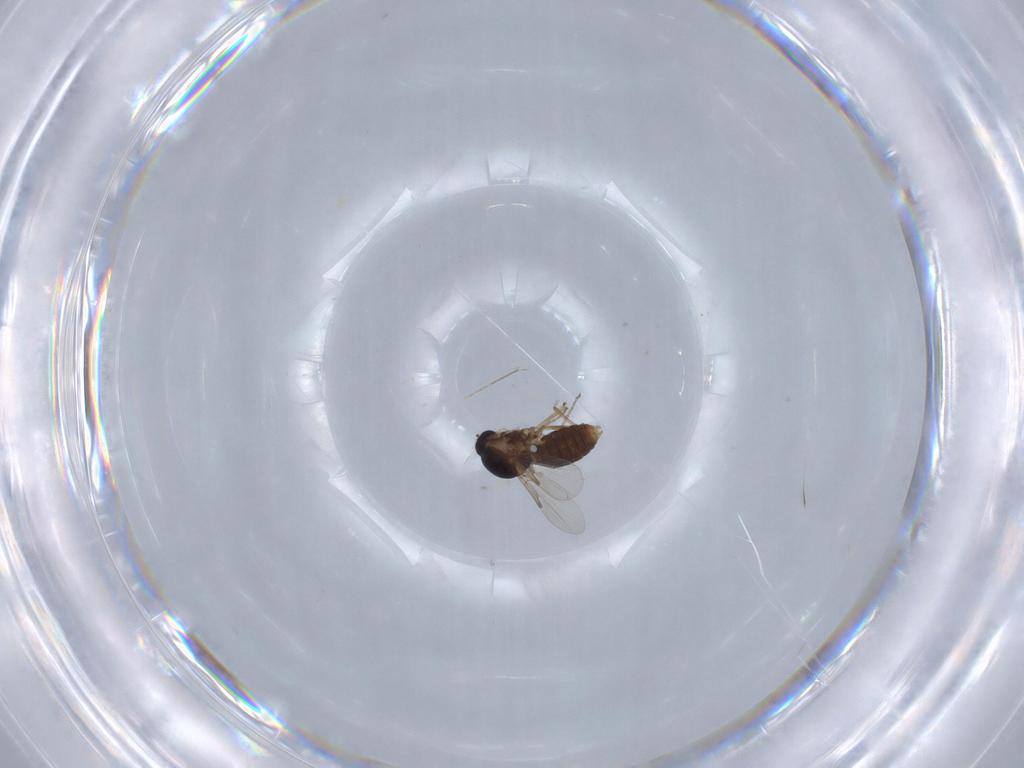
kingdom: Animalia
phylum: Arthropoda
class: Insecta
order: Diptera
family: Ceratopogonidae
